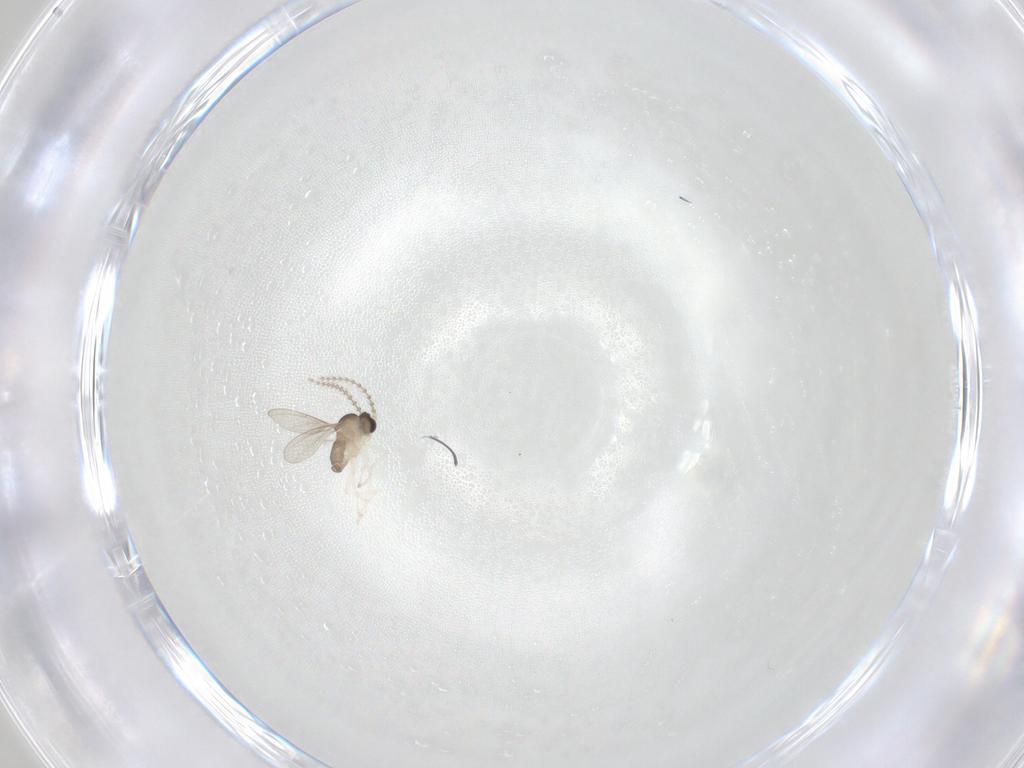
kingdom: Animalia
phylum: Arthropoda
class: Insecta
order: Diptera
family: Cecidomyiidae
